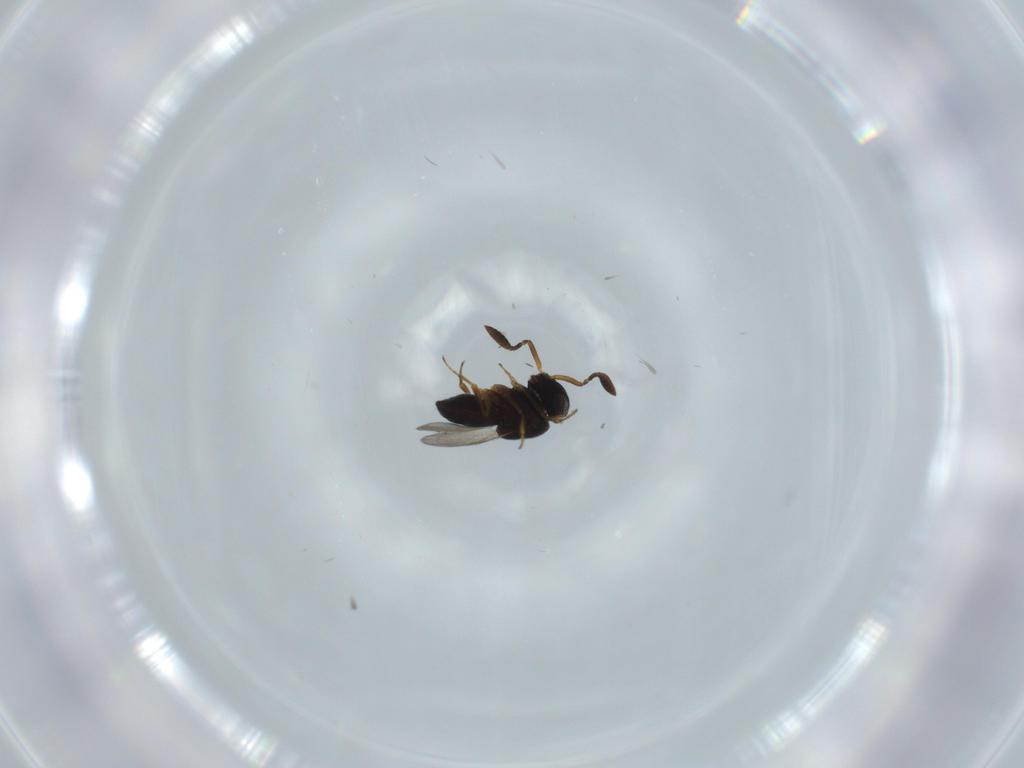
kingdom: Animalia
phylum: Arthropoda
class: Insecta
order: Coleoptera
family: Curculionidae
